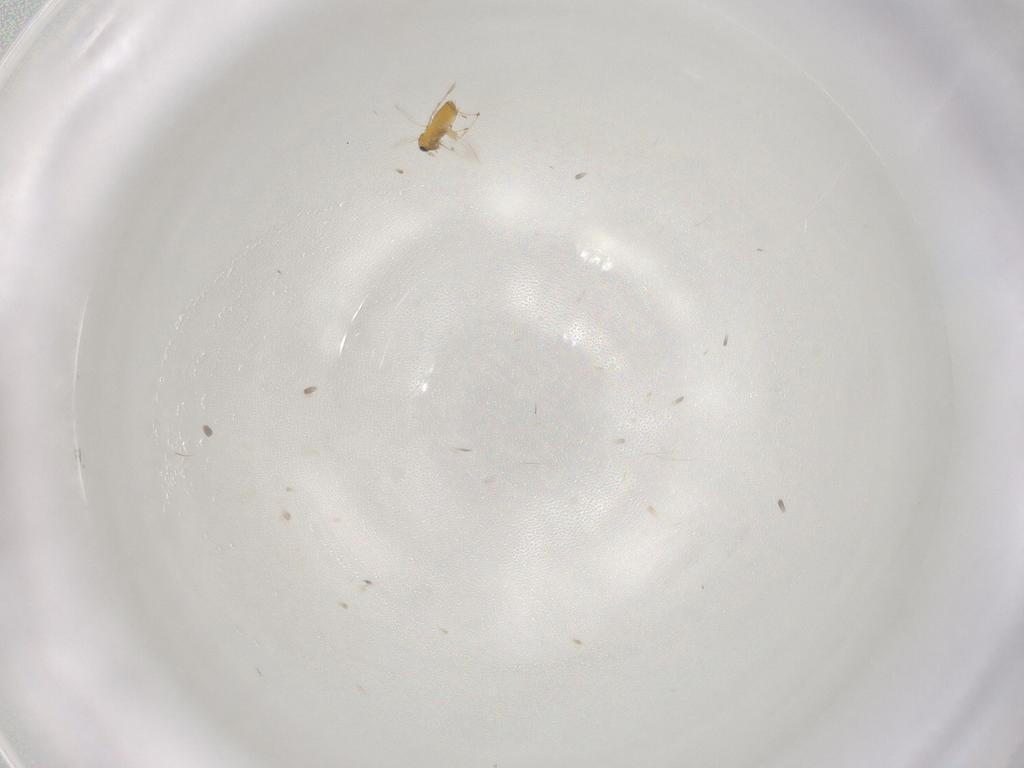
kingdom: Animalia
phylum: Arthropoda
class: Insecta
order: Hymenoptera
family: Trichogrammatidae
